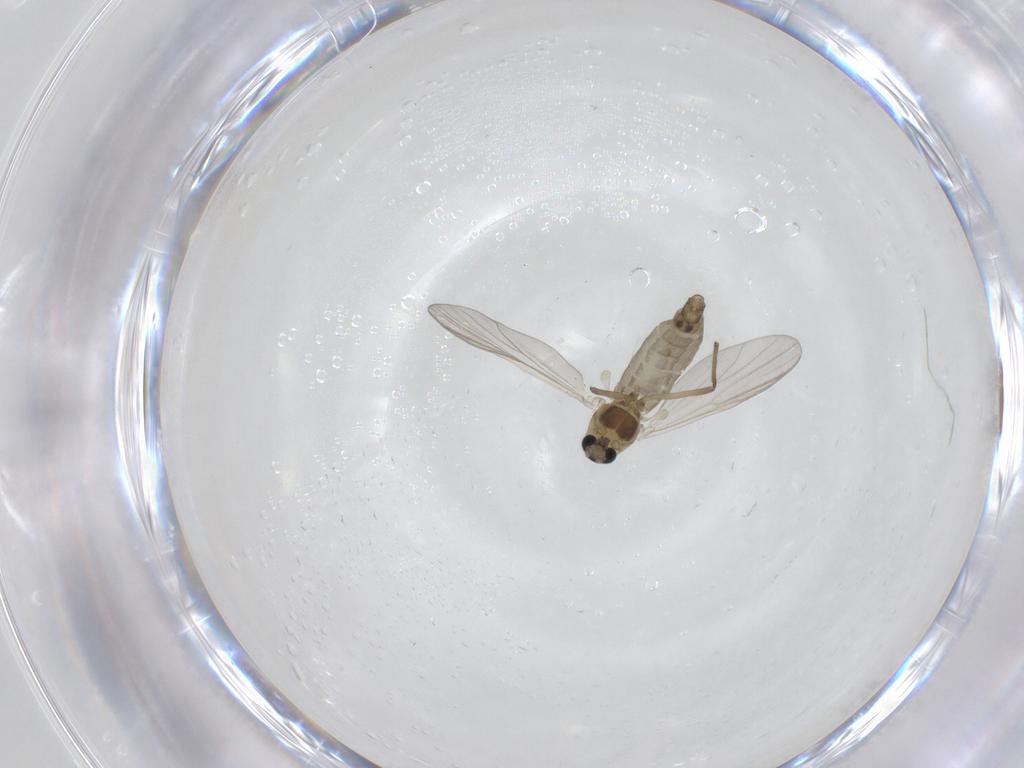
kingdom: Animalia
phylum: Arthropoda
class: Insecta
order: Diptera
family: Chironomidae
